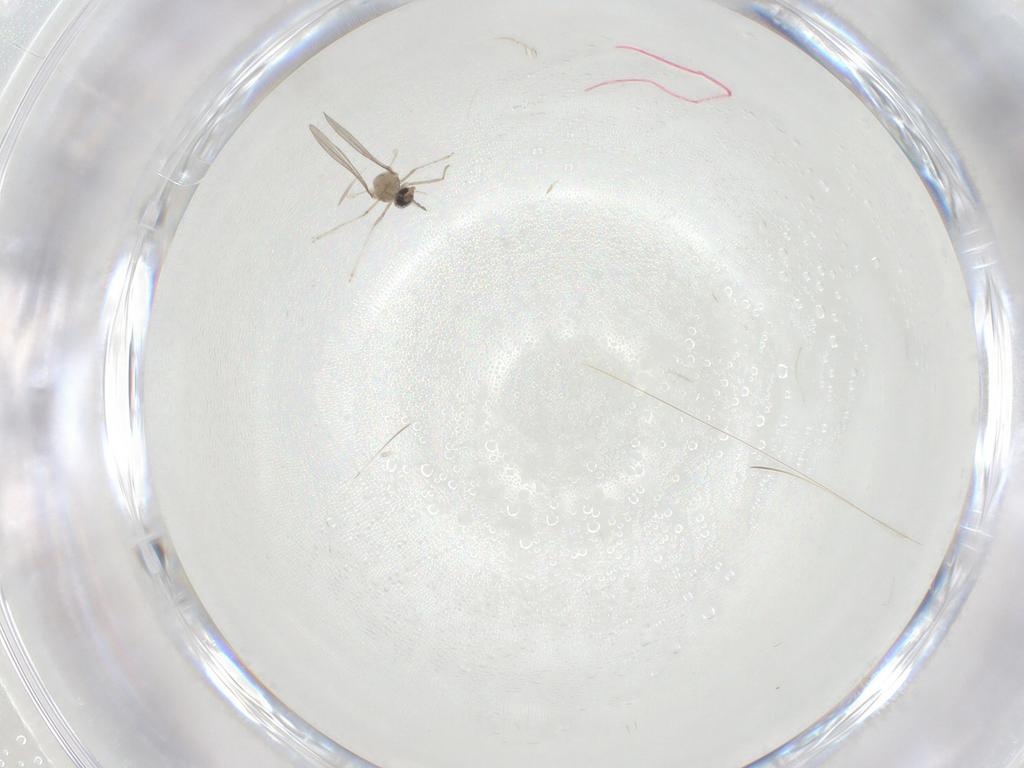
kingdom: Animalia
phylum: Arthropoda
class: Insecta
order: Diptera
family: Cecidomyiidae
